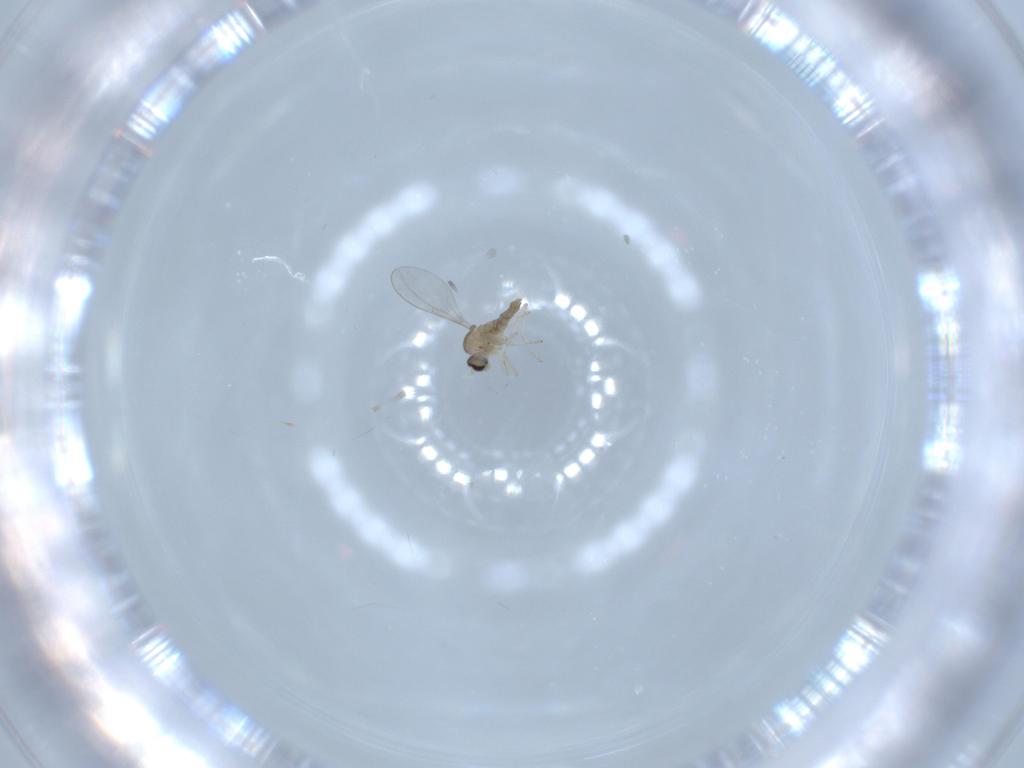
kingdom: Animalia
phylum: Arthropoda
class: Insecta
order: Diptera
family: Cecidomyiidae
